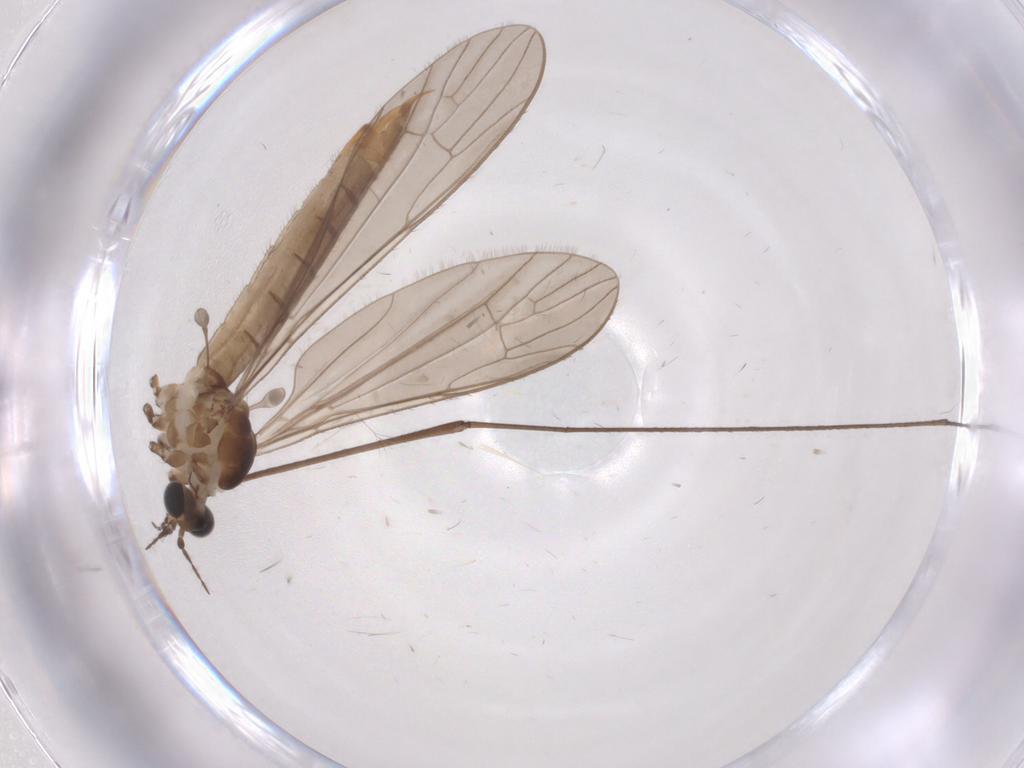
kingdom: Animalia
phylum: Arthropoda
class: Insecta
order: Diptera
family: Limoniidae
